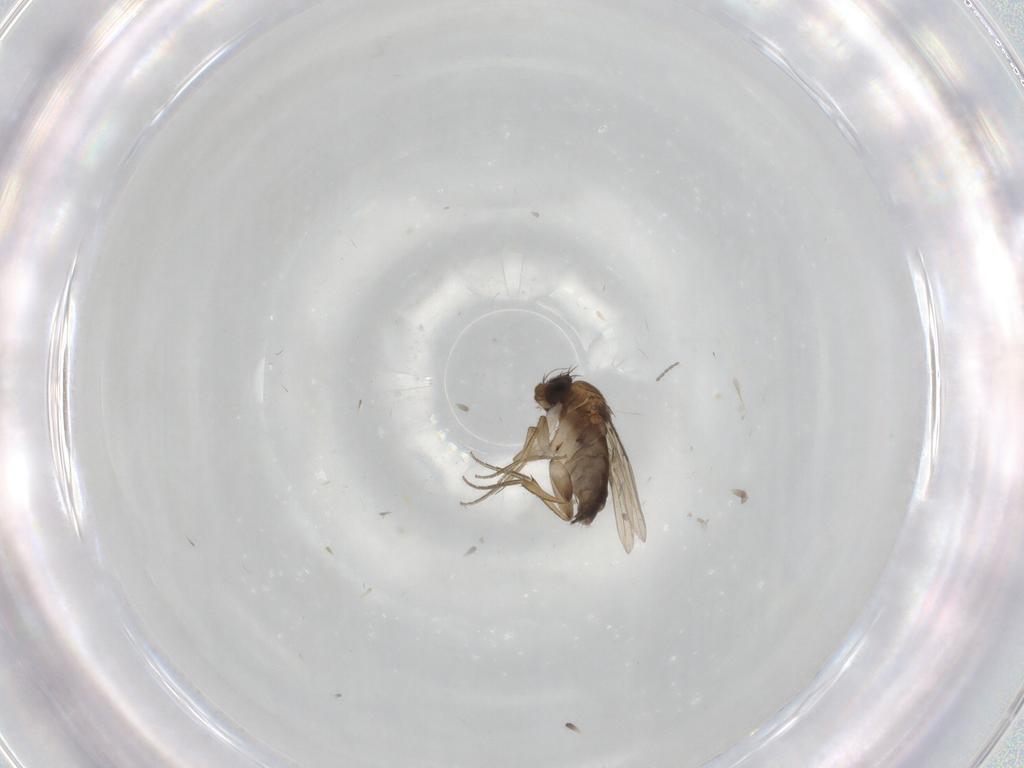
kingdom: Animalia
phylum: Arthropoda
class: Insecta
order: Diptera
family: Phoridae
